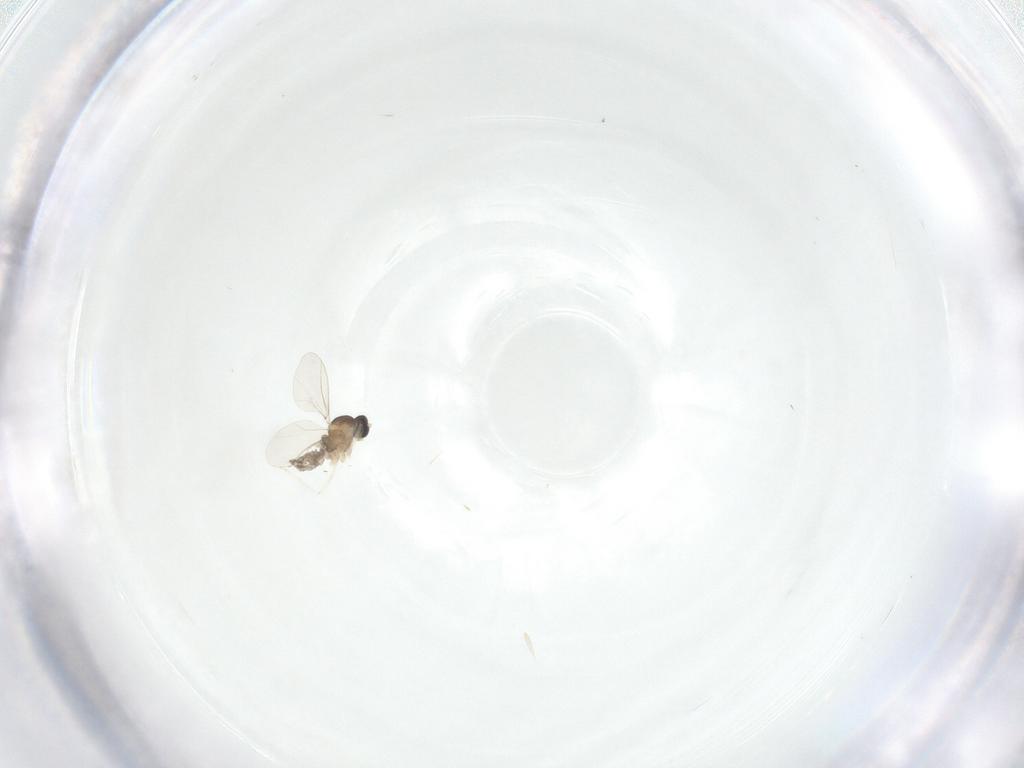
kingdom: Animalia
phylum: Arthropoda
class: Insecta
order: Diptera
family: Cecidomyiidae
